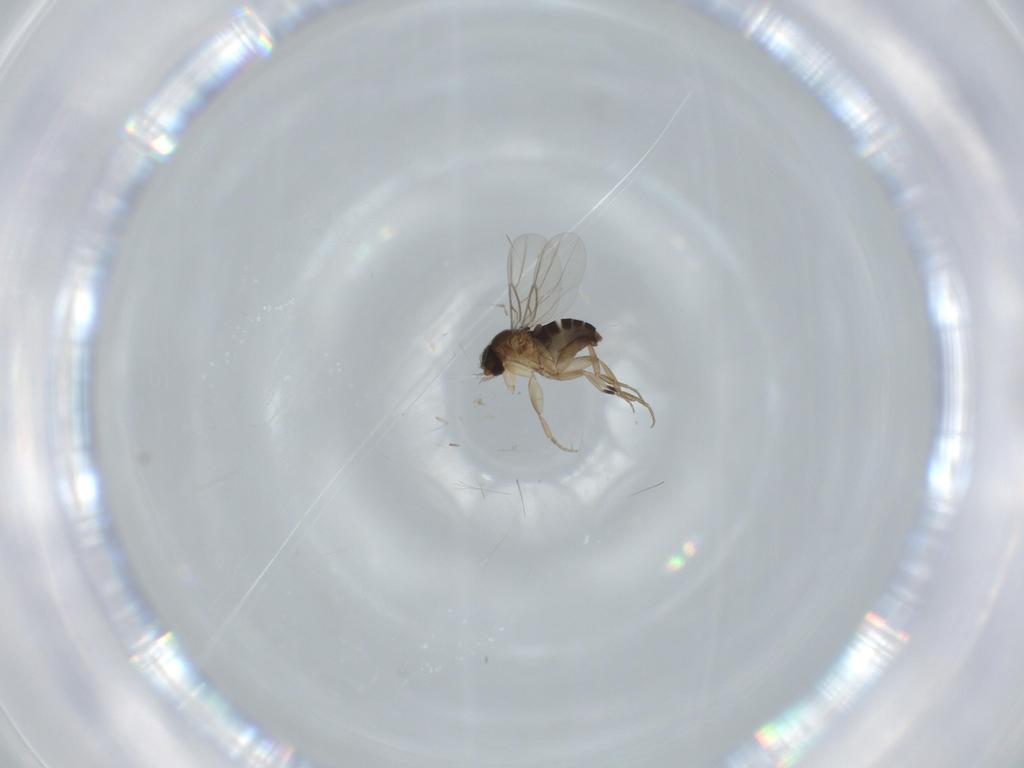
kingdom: Animalia
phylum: Arthropoda
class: Insecta
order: Diptera
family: Phoridae
